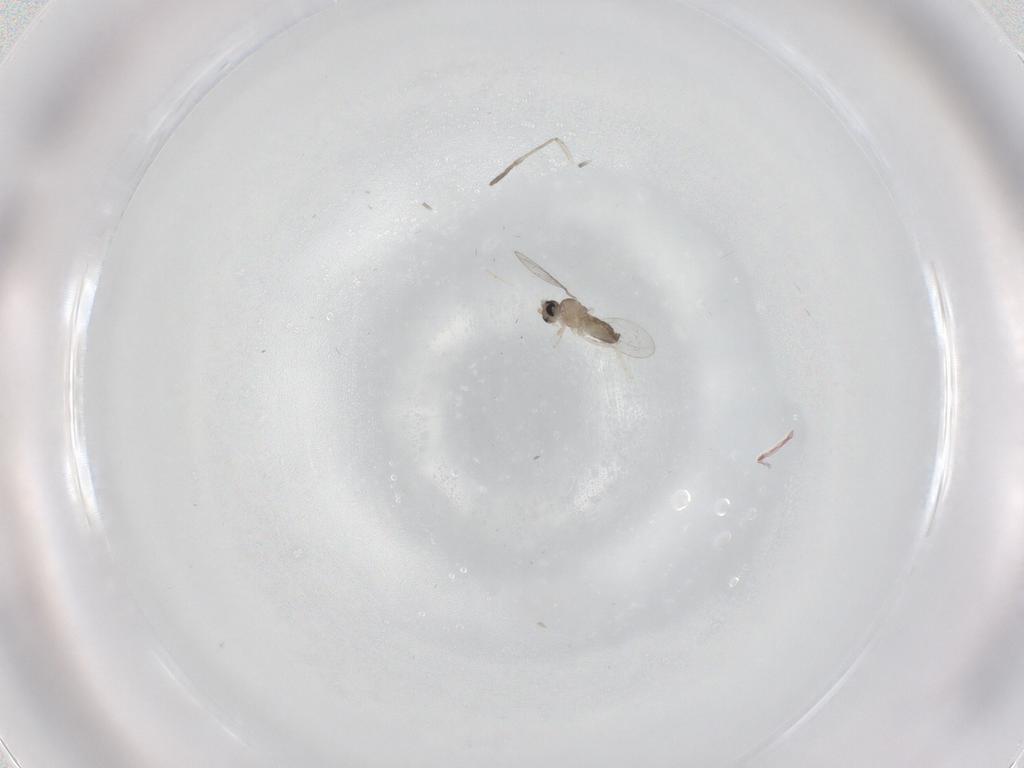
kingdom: Animalia
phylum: Arthropoda
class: Insecta
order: Diptera
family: Cecidomyiidae
